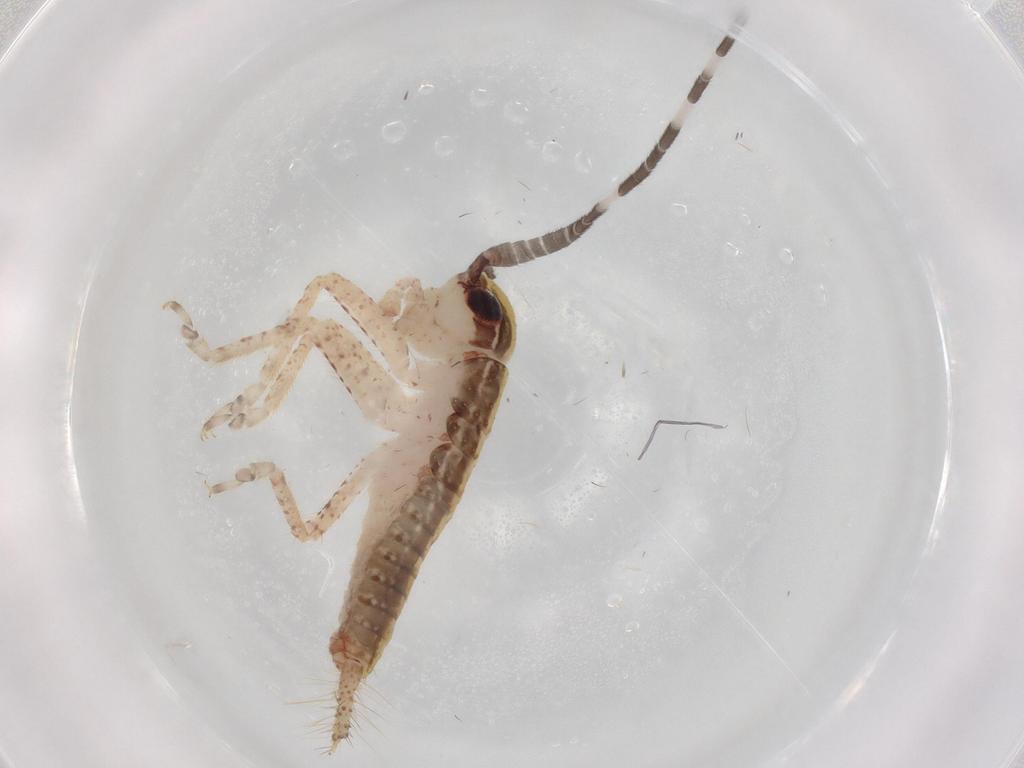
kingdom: Animalia
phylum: Arthropoda
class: Insecta
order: Orthoptera
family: Gryllidae
